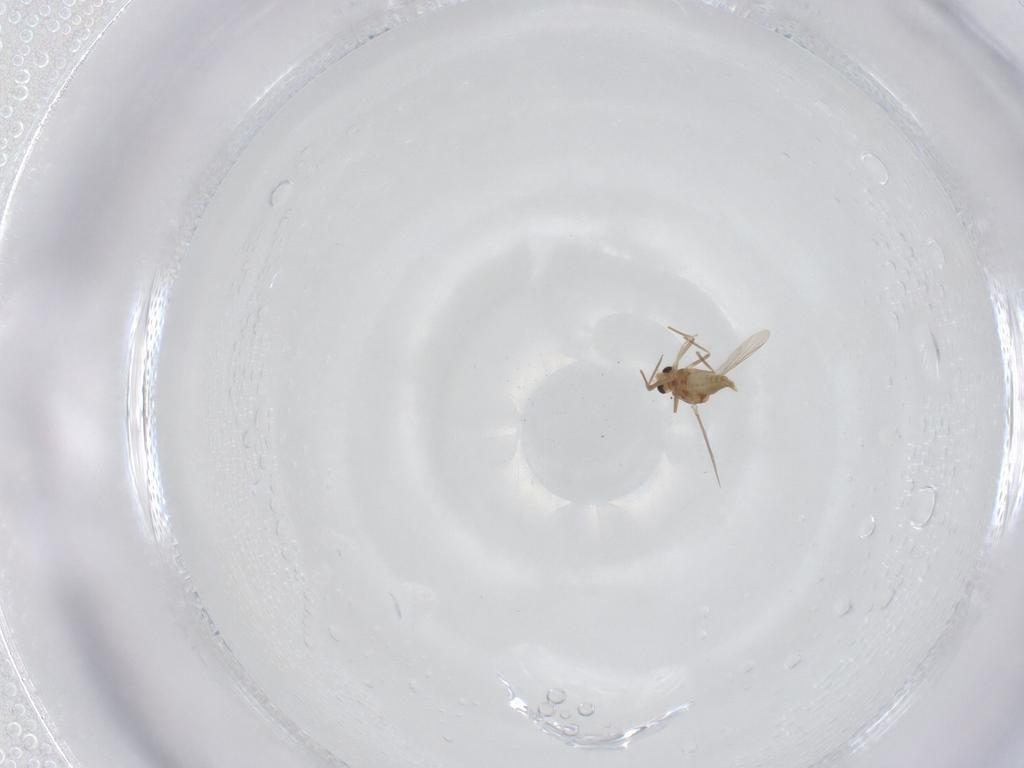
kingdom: Animalia
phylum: Arthropoda
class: Insecta
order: Diptera
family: Chironomidae
